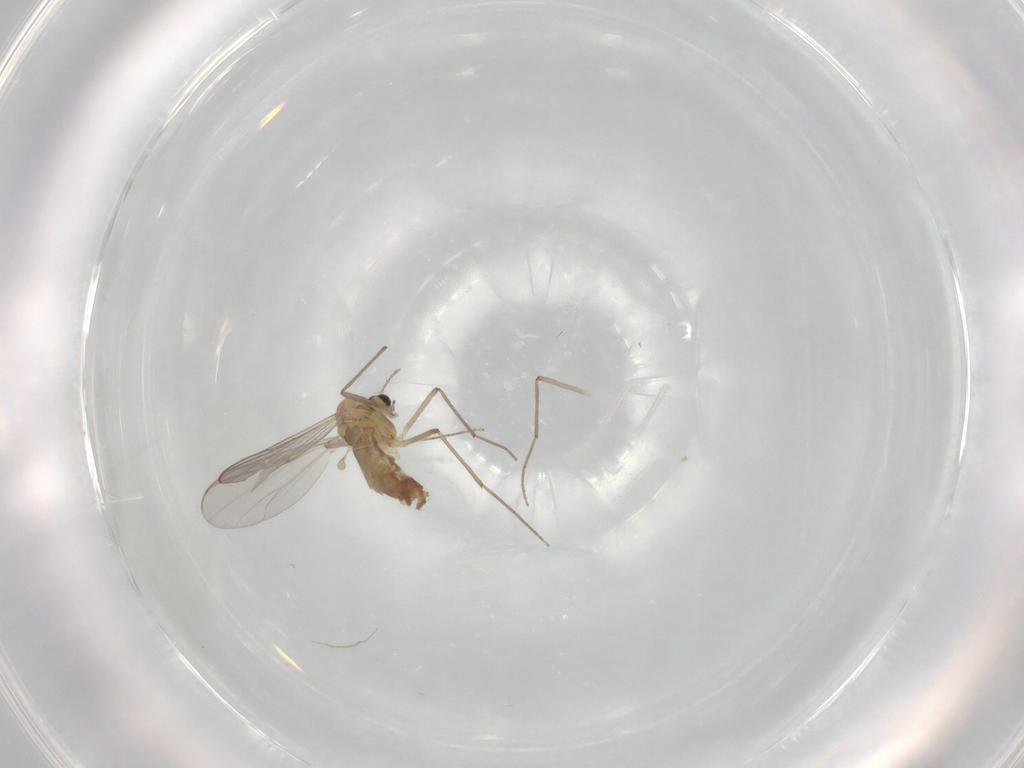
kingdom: Animalia
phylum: Arthropoda
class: Insecta
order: Diptera
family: Chironomidae
